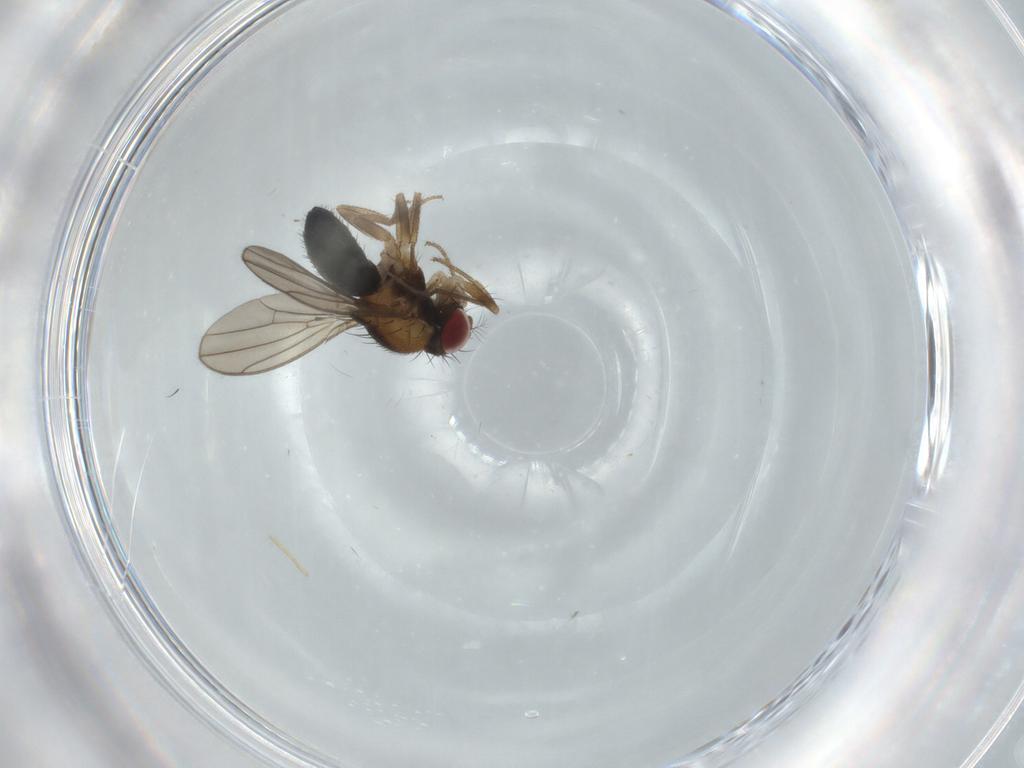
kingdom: Animalia
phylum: Arthropoda
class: Insecta
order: Diptera
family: Drosophilidae
